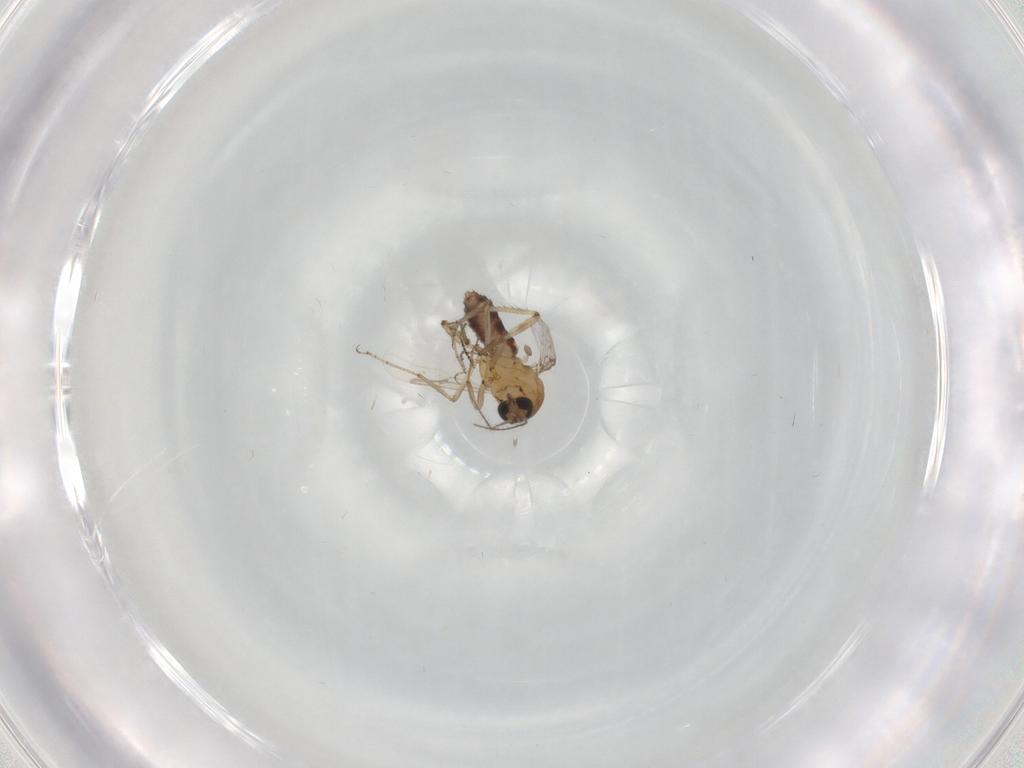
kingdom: Animalia
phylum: Arthropoda
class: Insecta
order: Diptera
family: Ceratopogonidae
